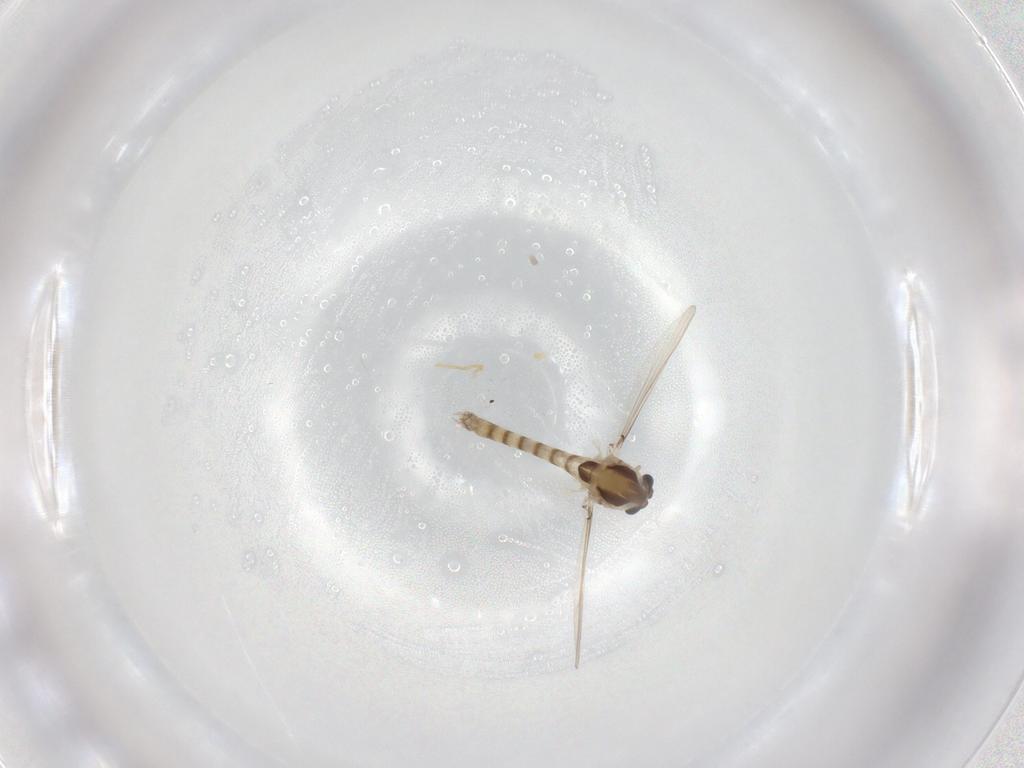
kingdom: Animalia
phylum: Arthropoda
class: Insecta
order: Diptera
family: Chironomidae
